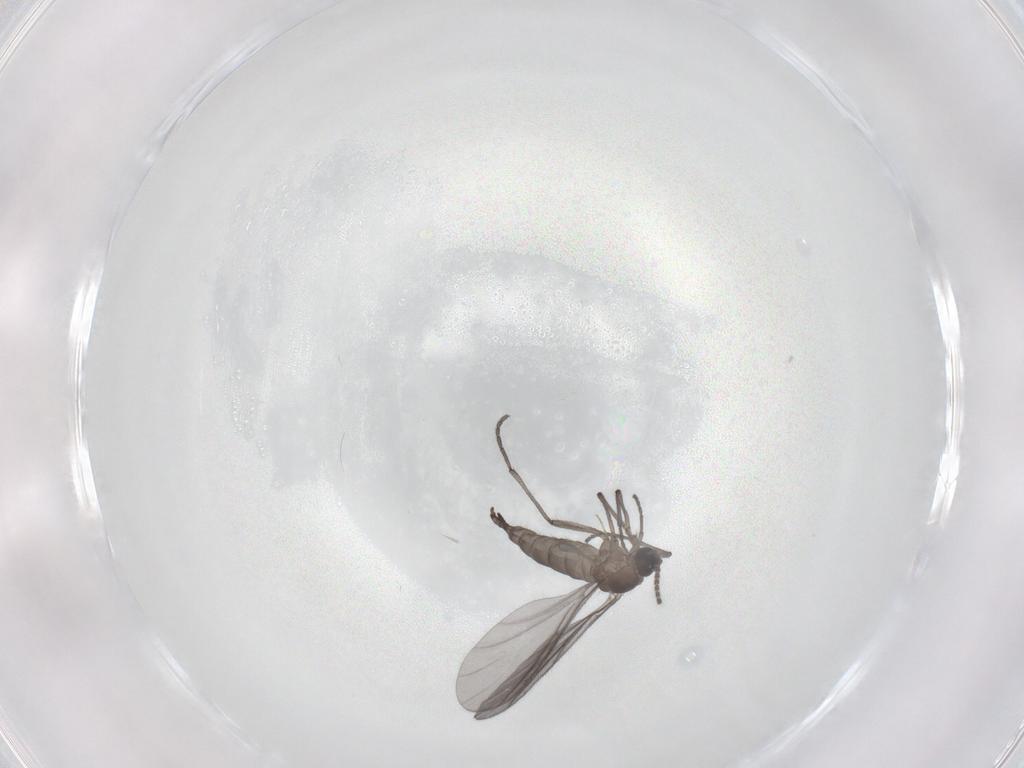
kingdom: Animalia
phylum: Arthropoda
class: Insecta
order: Diptera
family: Sciaridae
